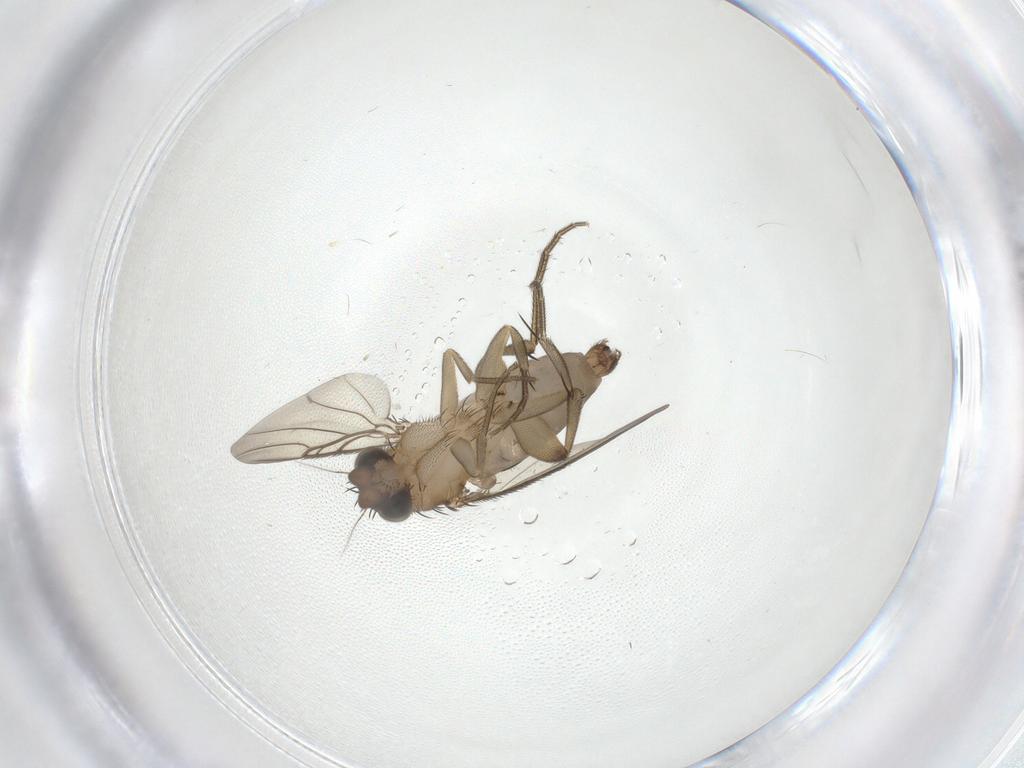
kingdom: Animalia
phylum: Arthropoda
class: Insecta
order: Diptera
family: Phoridae
